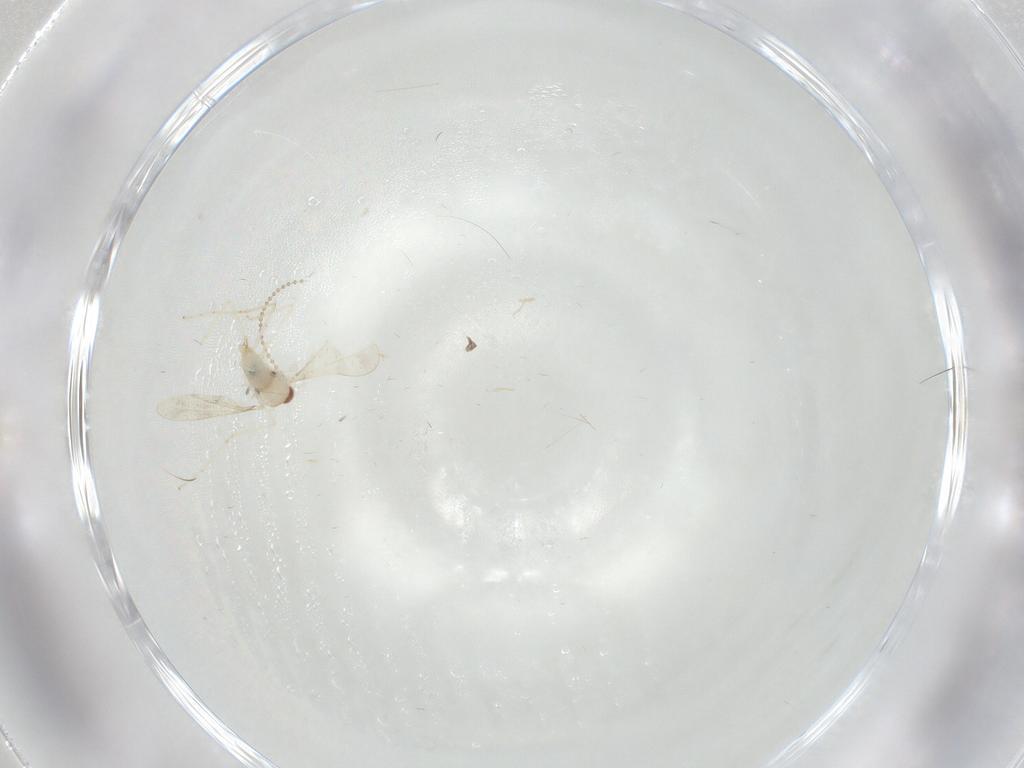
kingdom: Animalia
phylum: Arthropoda
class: Insecta
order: Diptera
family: Cecidomyiidae
